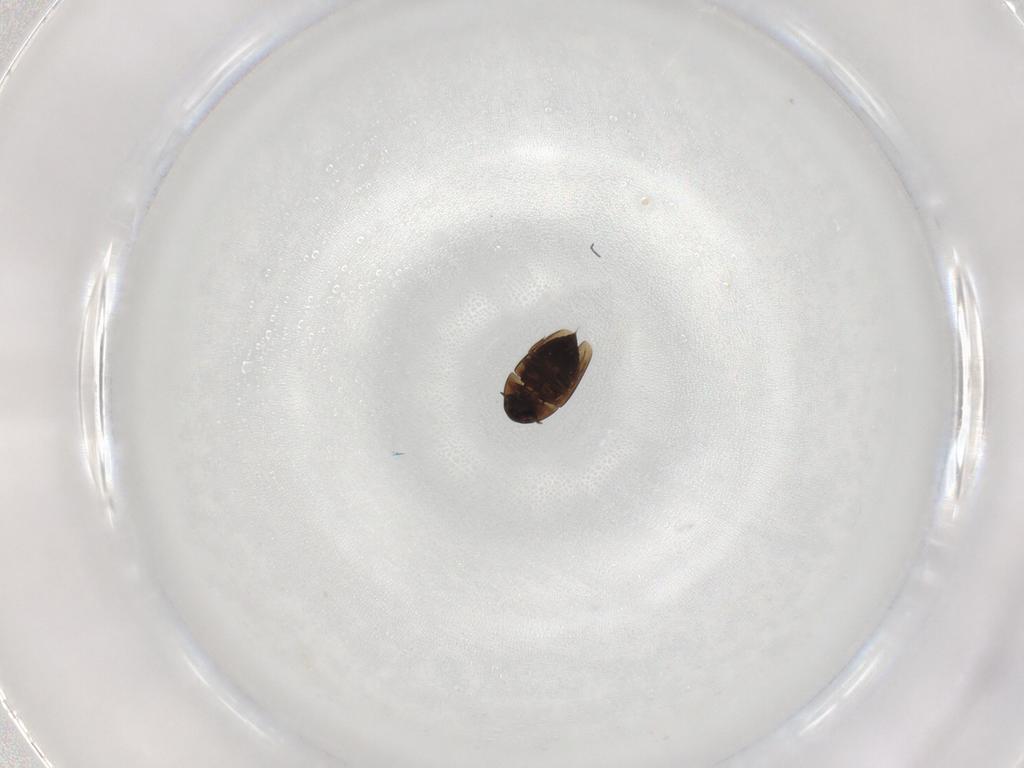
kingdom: Animalia
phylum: Arthropoda
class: Insecta
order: Coleoptera
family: Hydraenidae
